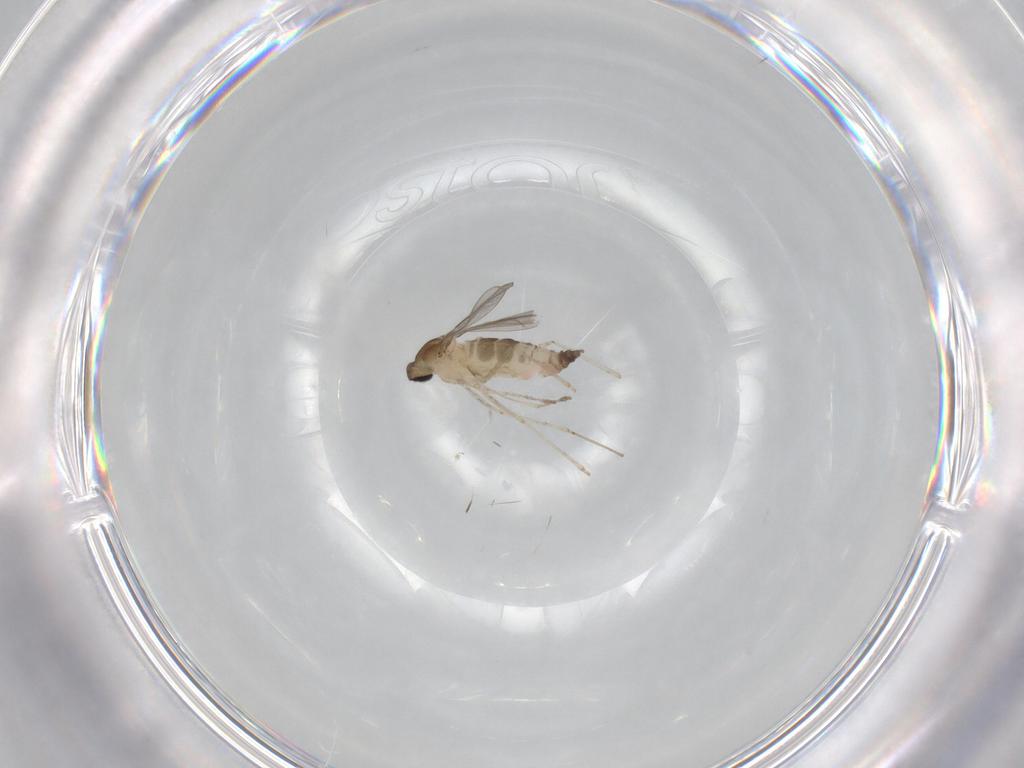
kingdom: Animalia
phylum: Arthropoda
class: Insecta
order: Diptera
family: Cecidomyiidae
